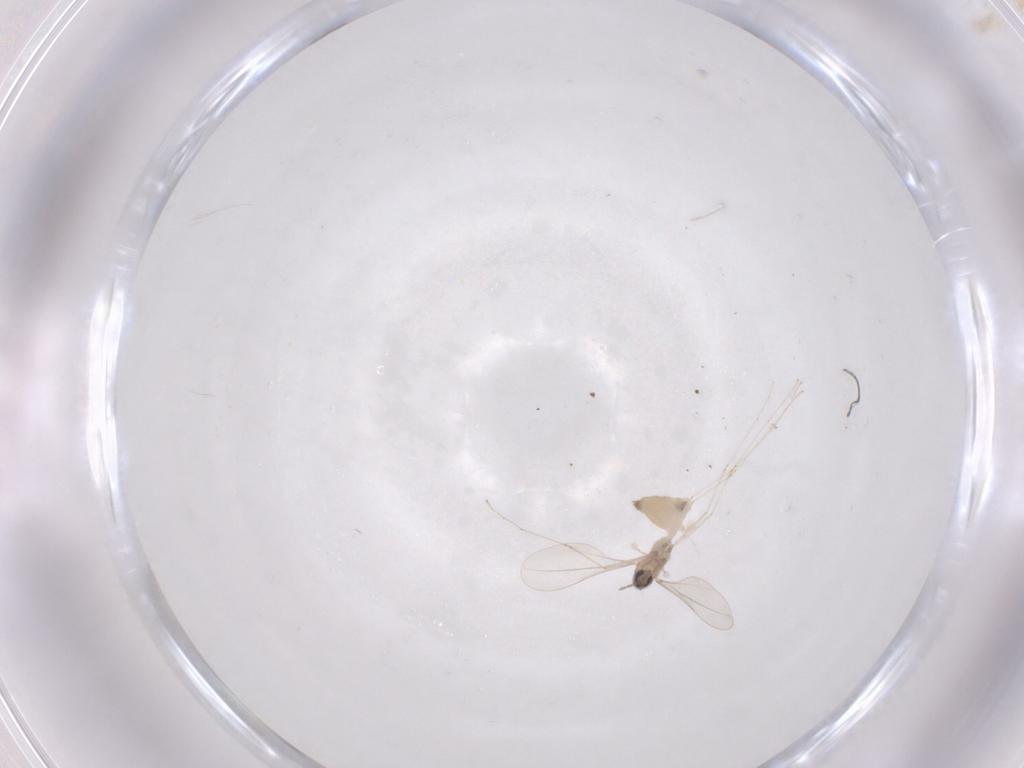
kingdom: Animalia
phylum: Arthropoda
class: Insecta
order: Diptera
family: Cecidomyiidae
